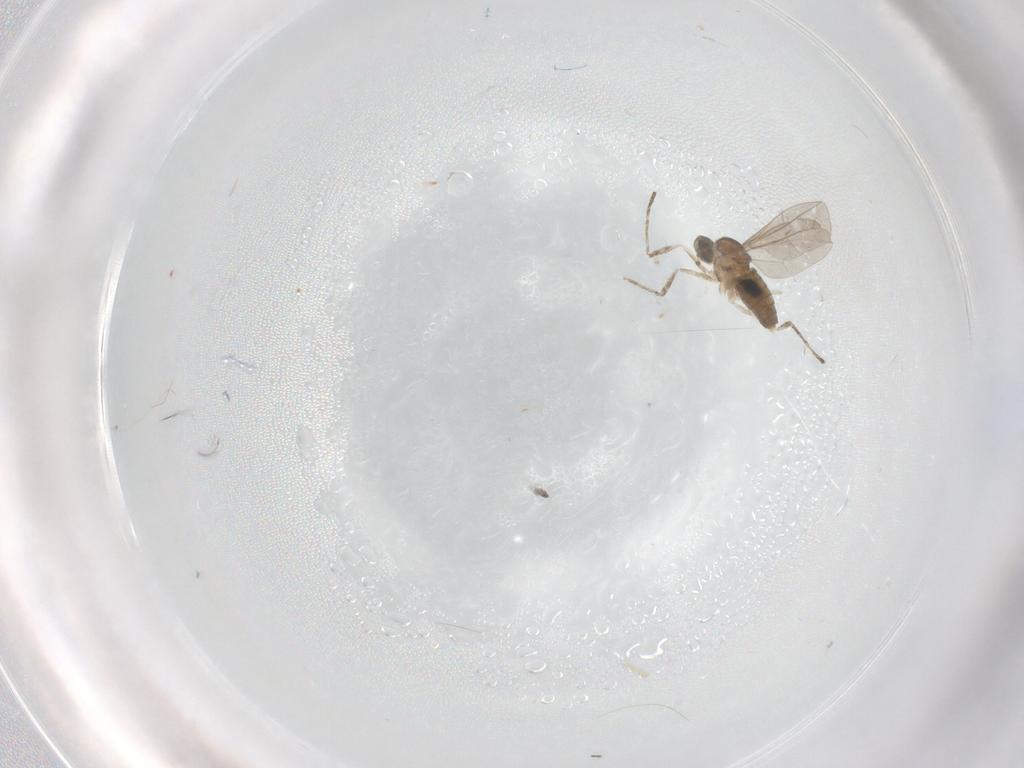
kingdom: Animalia
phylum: Arthropoda
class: Insecta
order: Diptera
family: Cecidomyiidae
